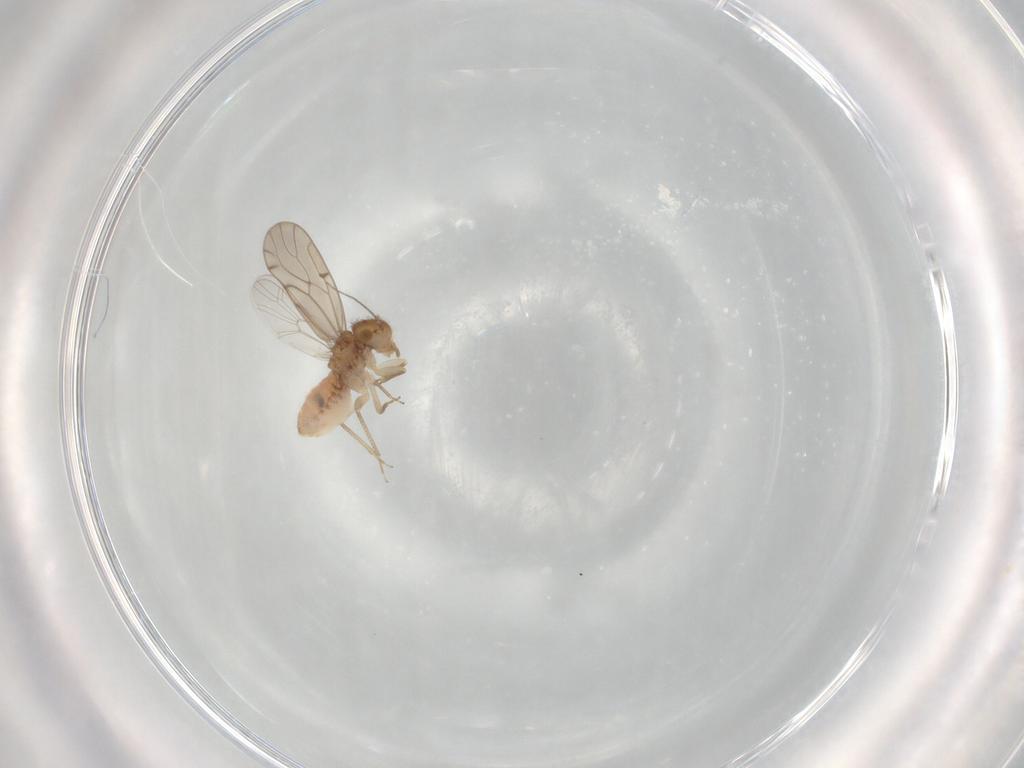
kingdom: Animalia
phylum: Arthropoda
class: Insecta
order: Psocodea
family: Ectopsocidae
